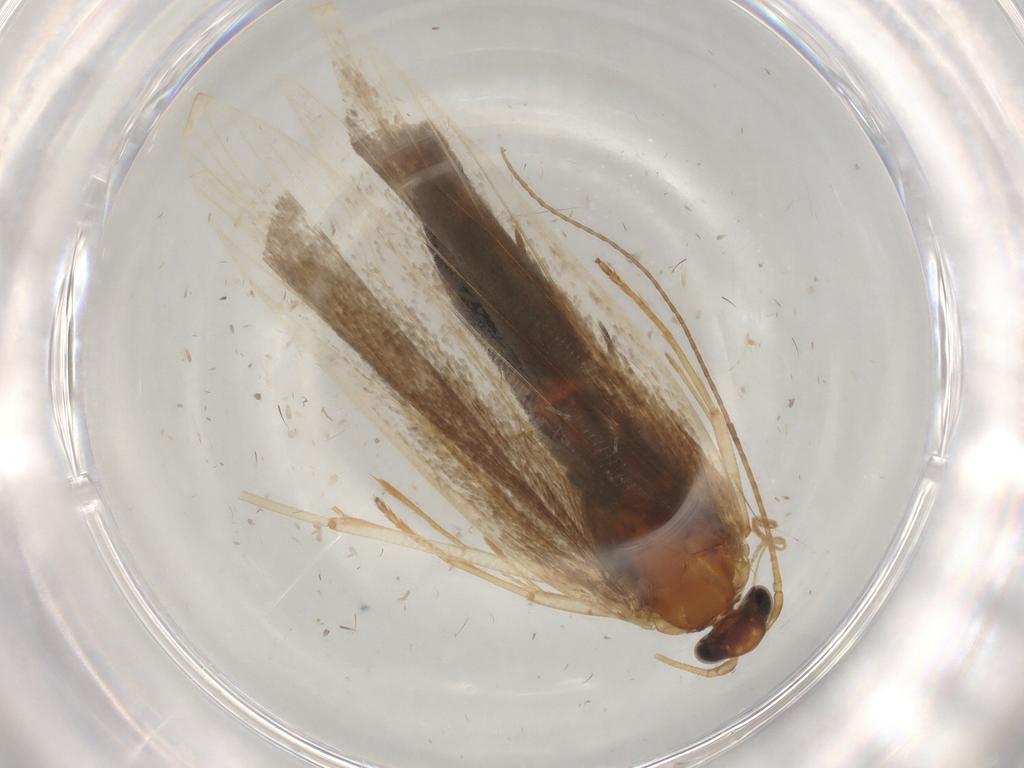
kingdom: Animalia
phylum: Arthropoda
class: Insecta
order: Lepidoptera
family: Gelechiidae
